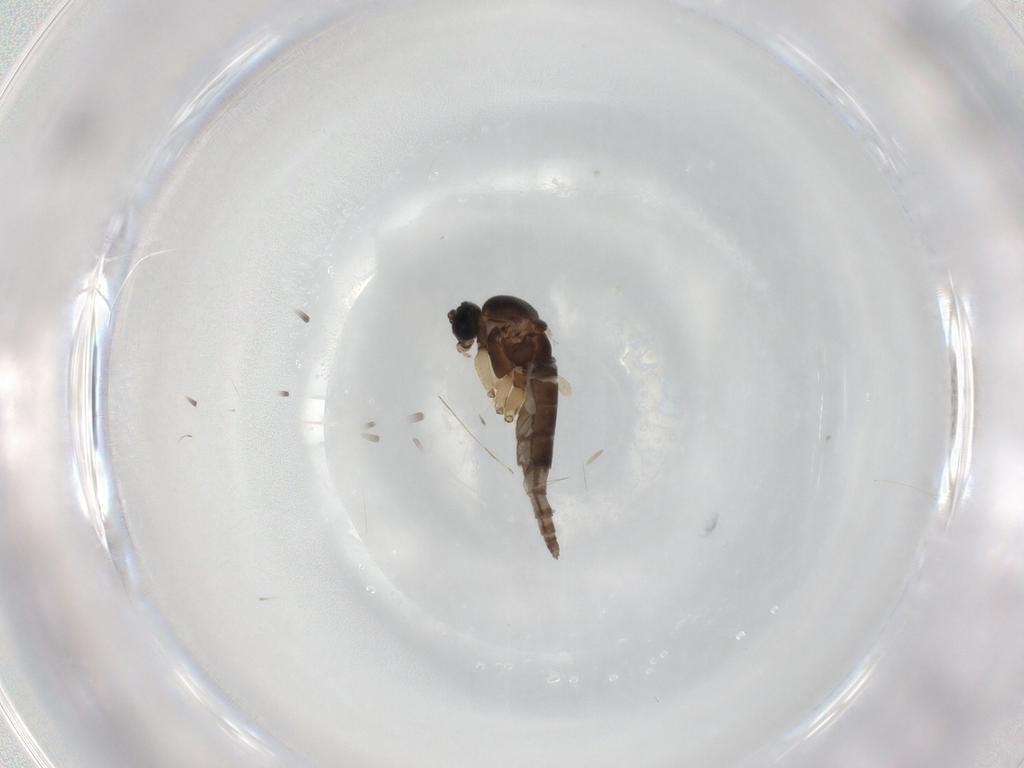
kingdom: Animalia
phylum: Arthropoda
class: Insecta
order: Diptera
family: Sciaridae
